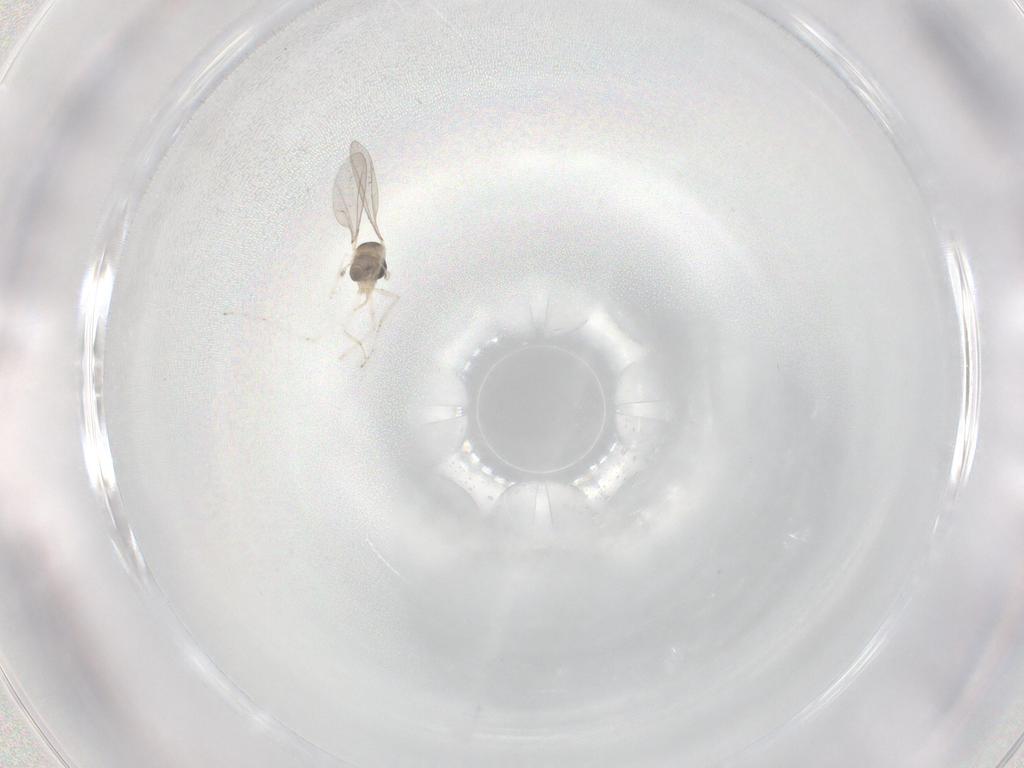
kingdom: Animalia
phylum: Arthropoda
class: Insecta
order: Diptera
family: Cecidomyiidae
